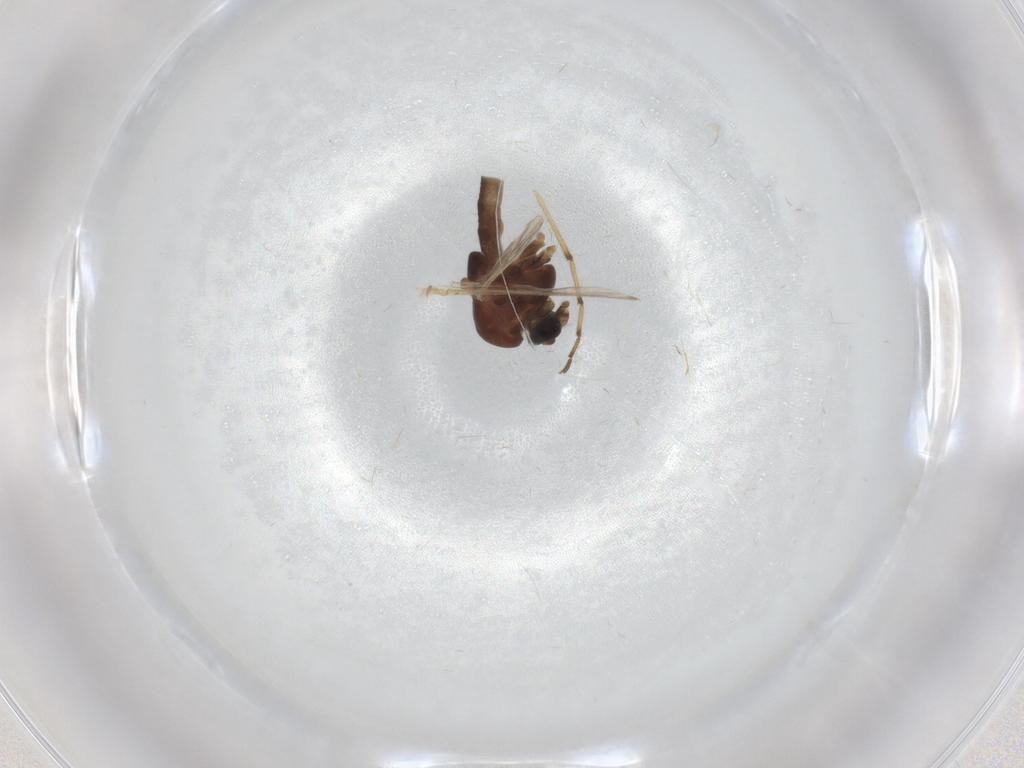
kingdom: Animalia
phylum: Arthropoda
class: Insecta
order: Diptera
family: Chironomidae
